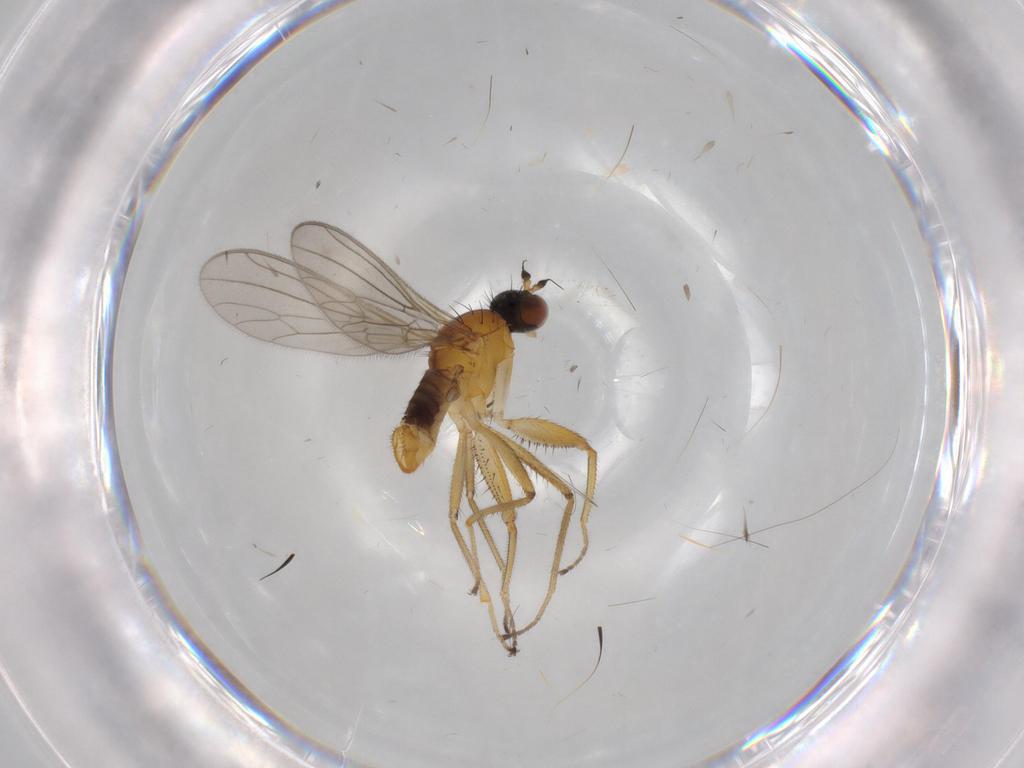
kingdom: Animalia
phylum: Arthropoda
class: Insecta
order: Diptera
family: Empididae
